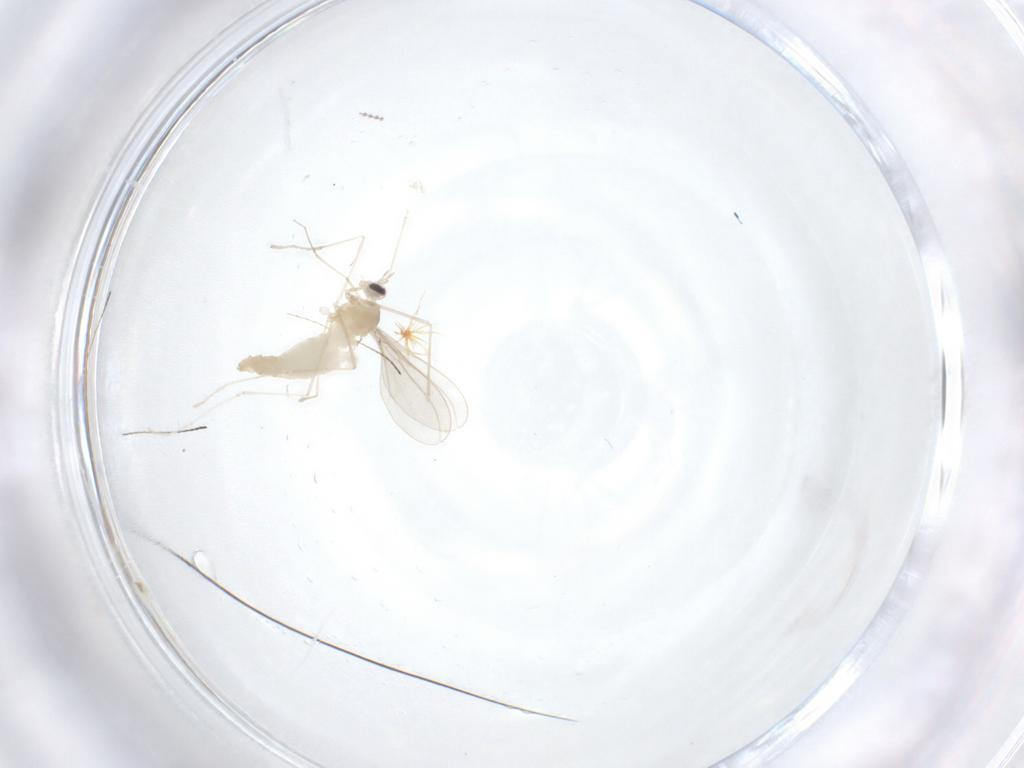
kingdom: Animalia
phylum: Arthropoda
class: Insecta
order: Diptera
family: Cecidomyiidae
